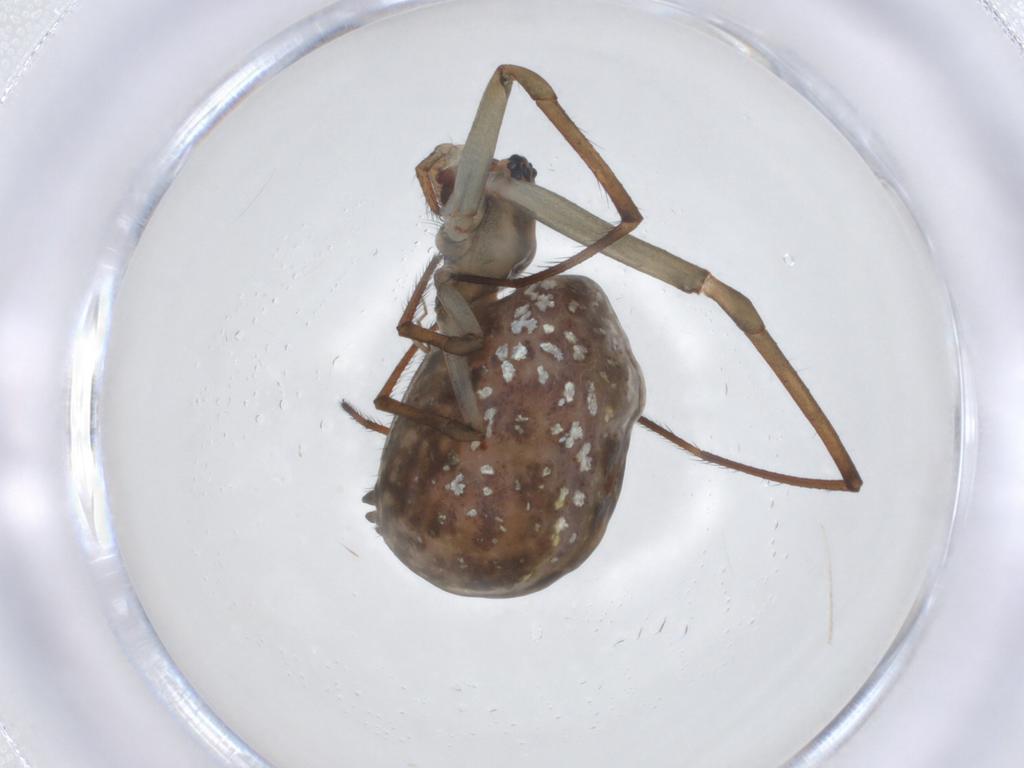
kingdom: Animalia
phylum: Arthropoda
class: Arachnida
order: Araneae
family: Tetragnathidae
